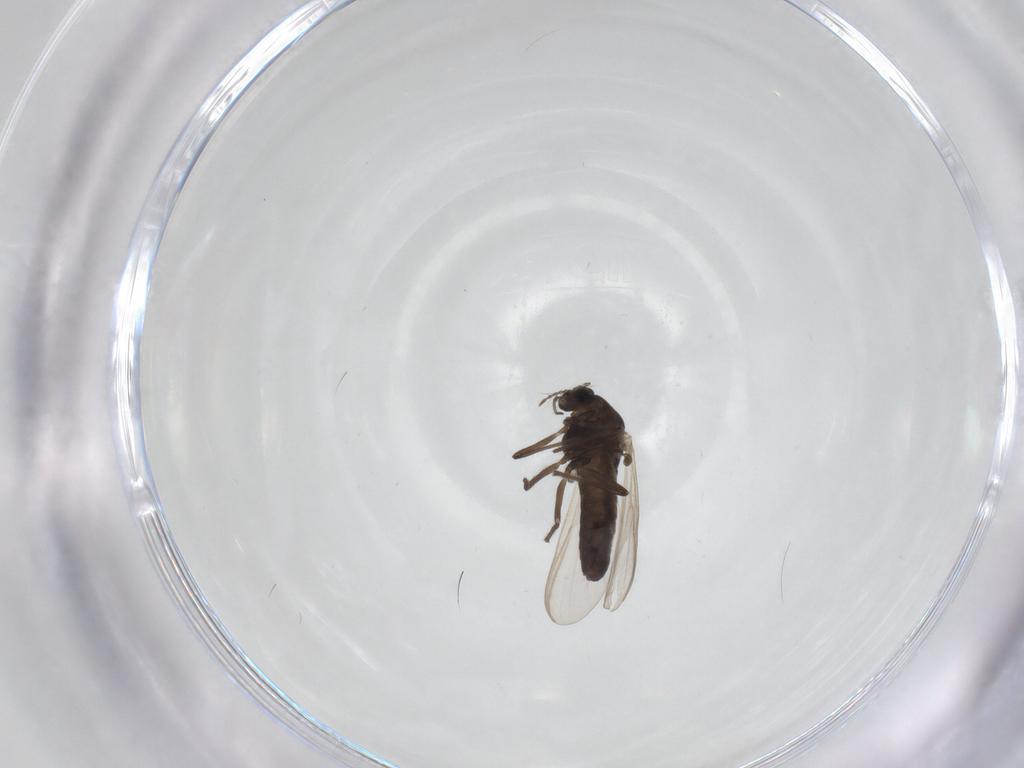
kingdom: Animalia
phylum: Arthropoda
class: Insecta
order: Diptera
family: Chironomidae
